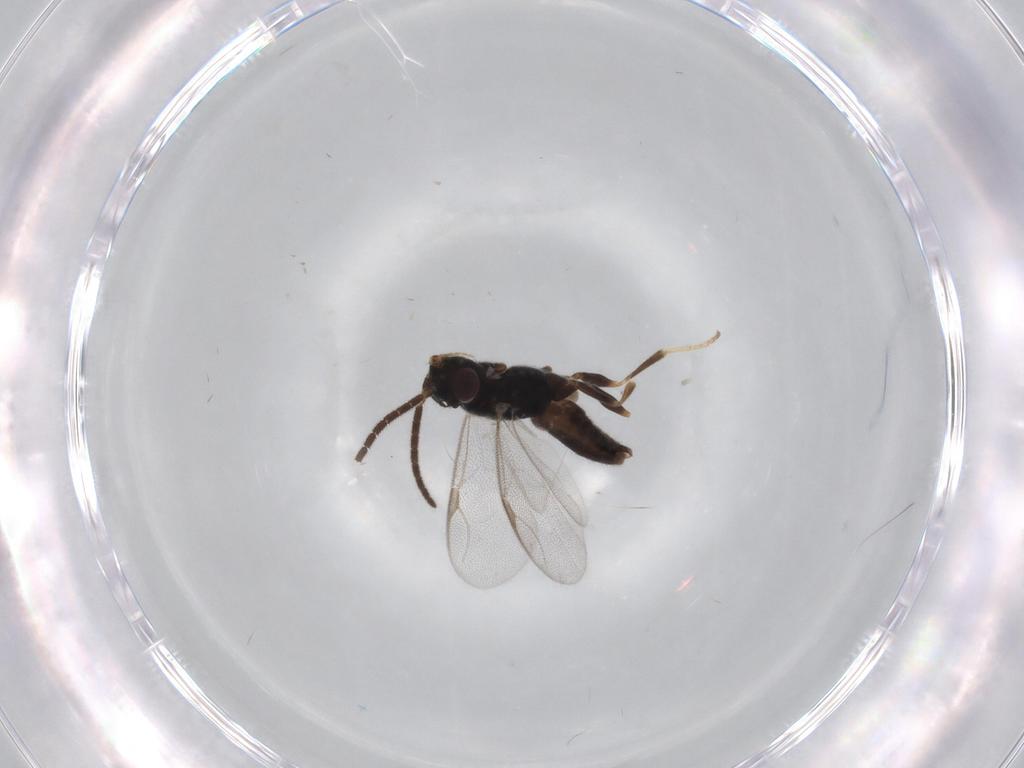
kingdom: Animalia
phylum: Arthropoda
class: Insecta
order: Hymenoptera
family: Dryinidae
